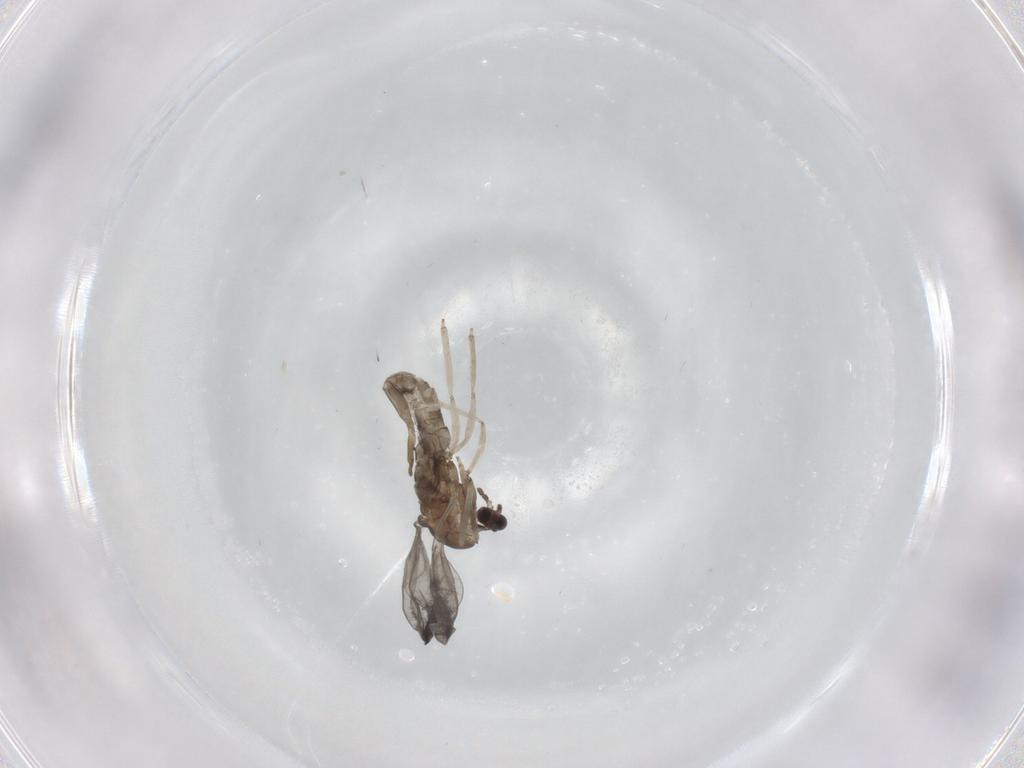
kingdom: Animalia
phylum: Arthropoda
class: Insecta
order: Diptera
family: Cecidomyiidae
